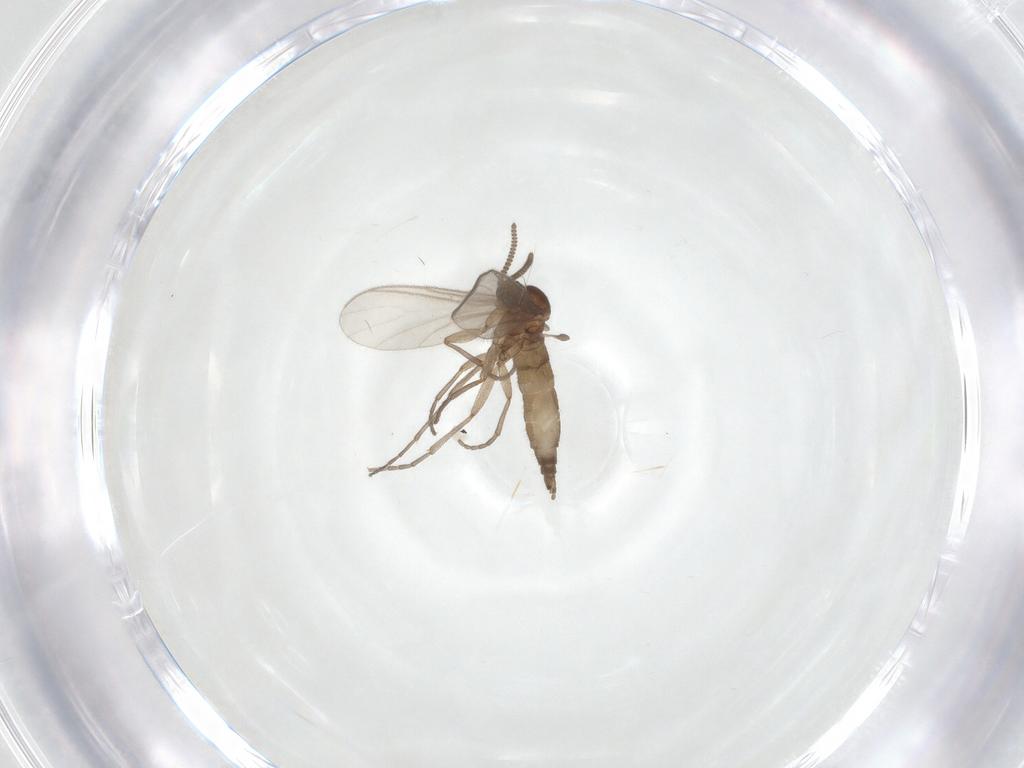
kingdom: Animalia
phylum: Arthropoda
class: Insecta
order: Diptera
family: Sciaridae
